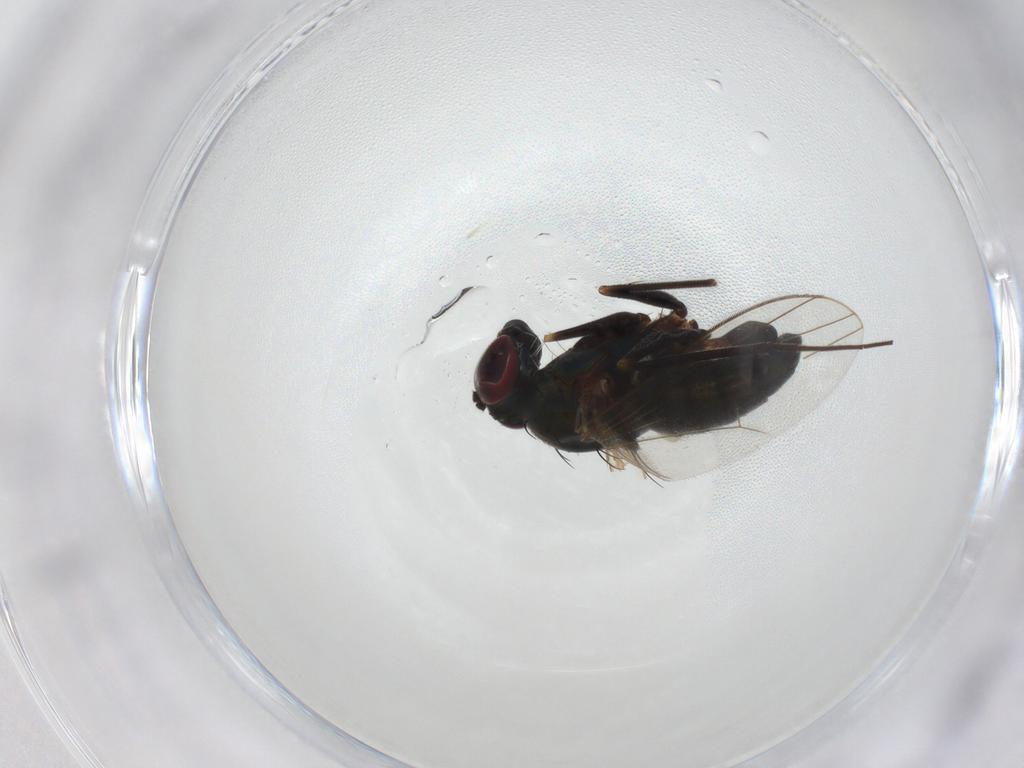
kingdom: Animalia
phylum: Arthropoda
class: Insecta
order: Diptera
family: Dolichopodidae
